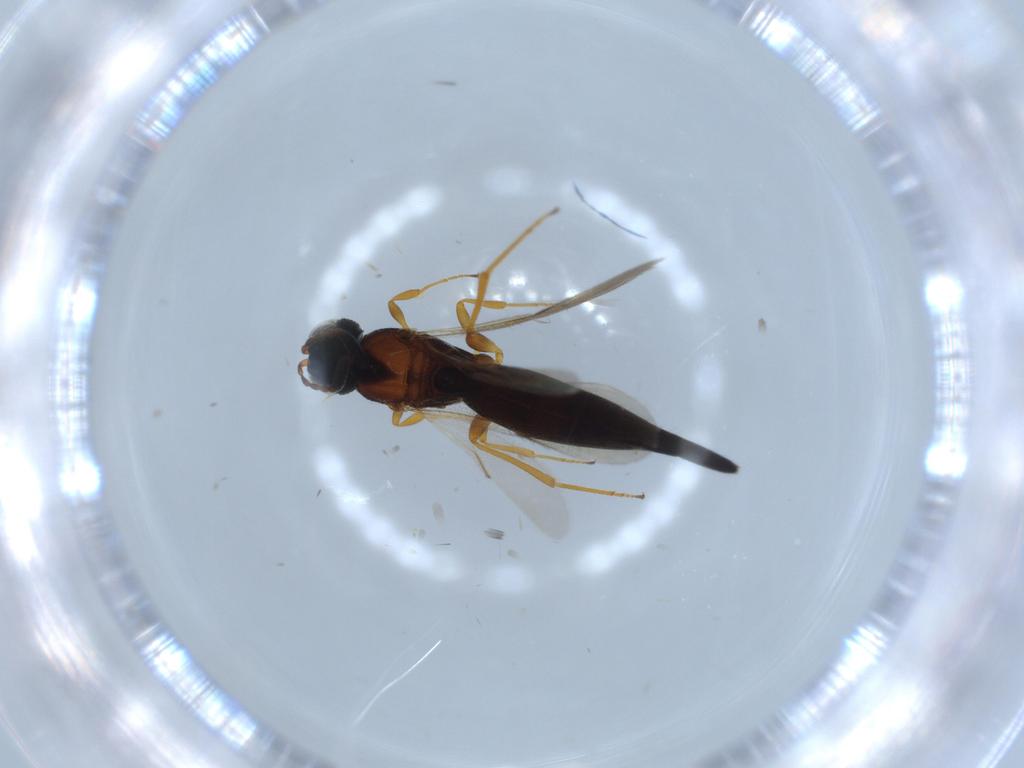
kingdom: Animalia
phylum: Arthropoda
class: Insecta
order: Hymenoptera
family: Scelionidae
